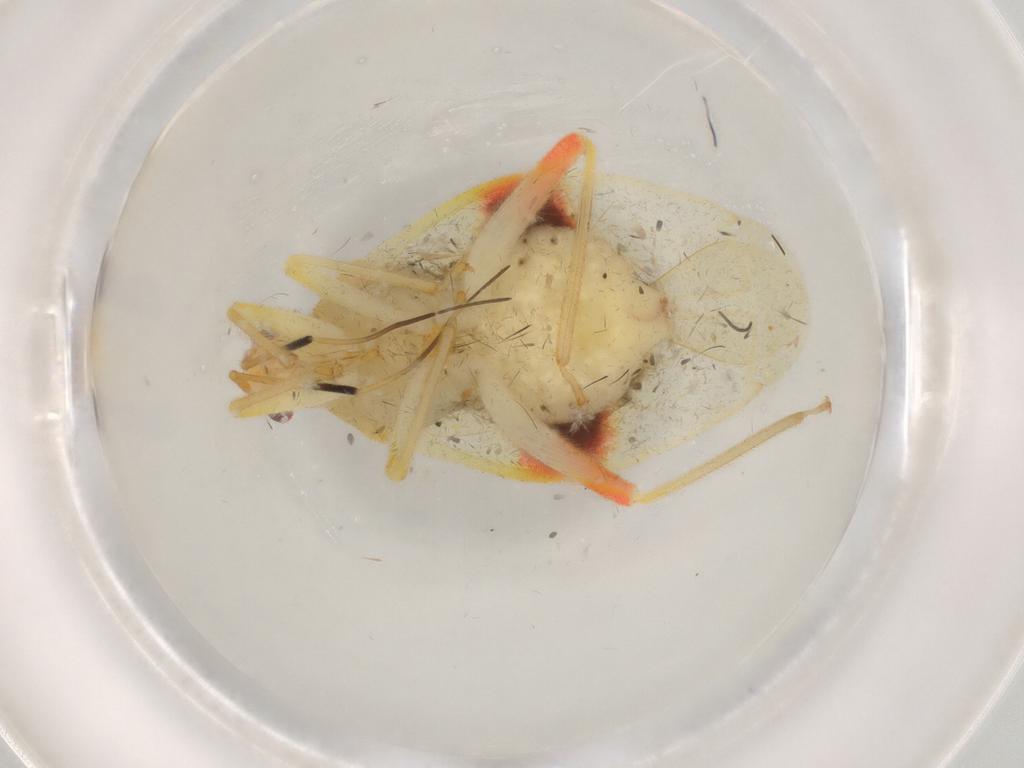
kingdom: Animalia
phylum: Arthropoda
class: Insecta
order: Hemiptera
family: Miridae
